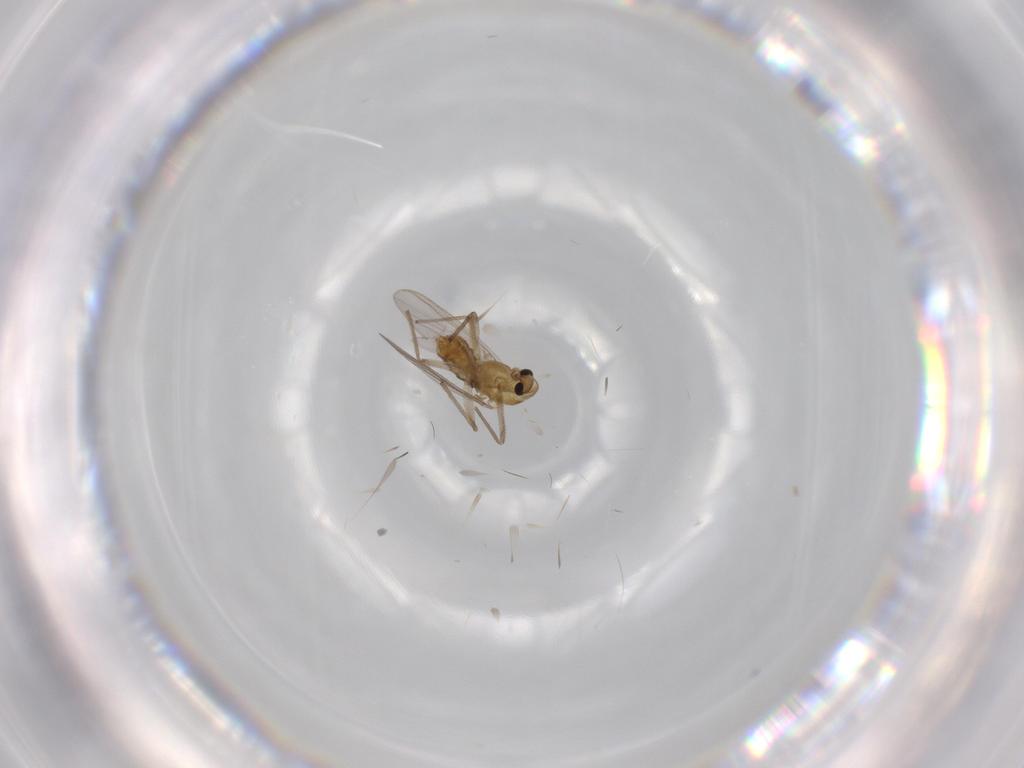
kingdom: Animalia
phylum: Arthropoda
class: Insecta
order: Diptera
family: Chironomidae
